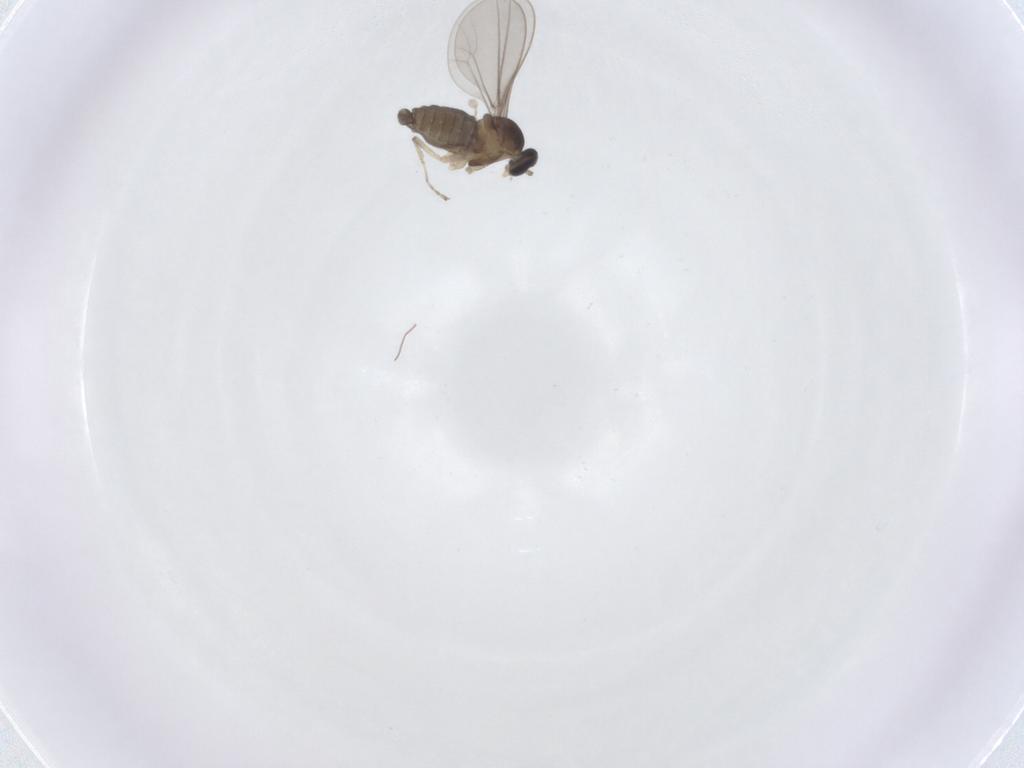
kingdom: Animalia
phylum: Arthropoda
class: Insecta
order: Diptera
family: Cecidomyiidae
